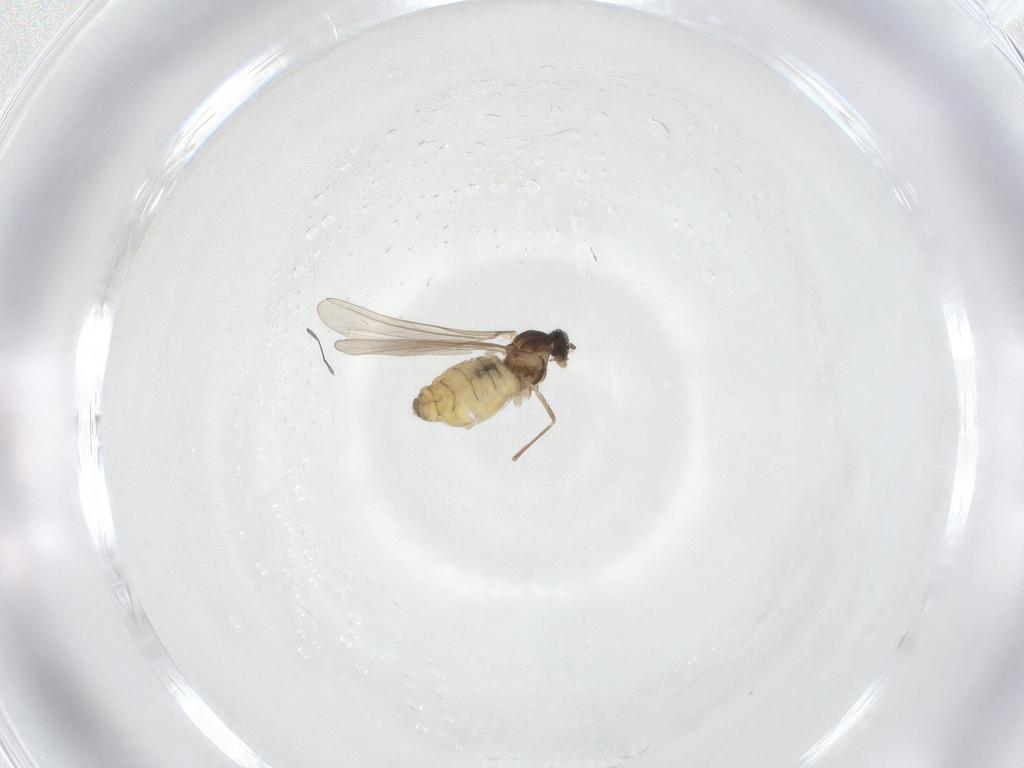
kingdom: Animalia
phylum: Arthropoda
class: Insecta
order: Diptera
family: Cecidomyiidae
